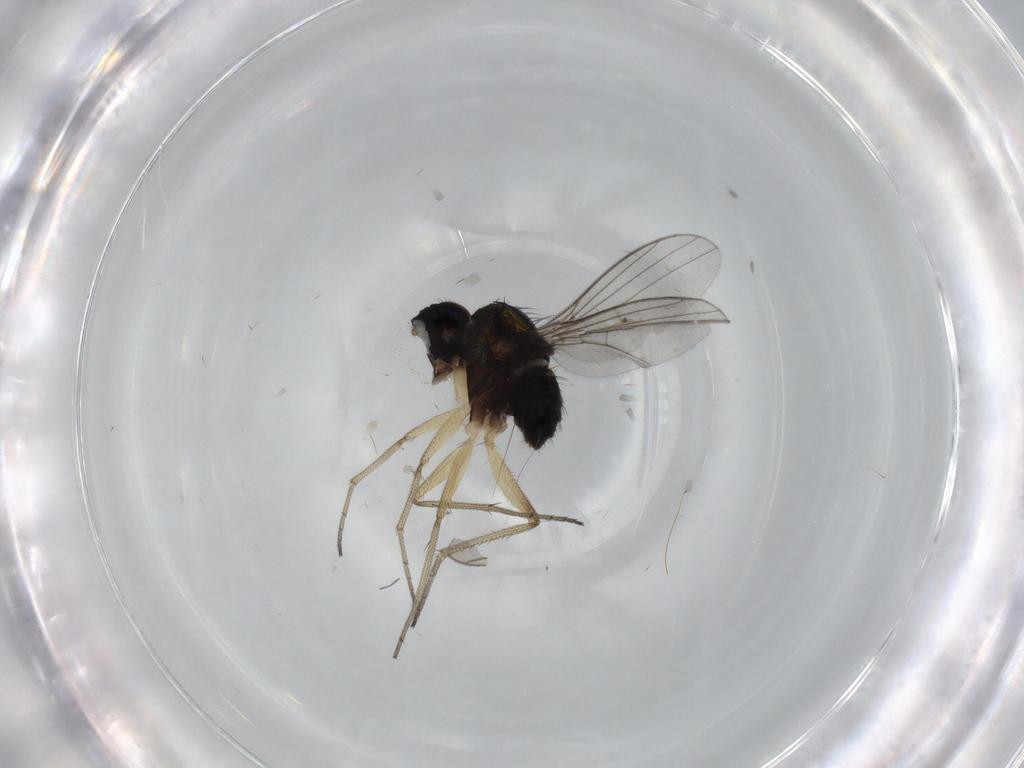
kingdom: Animalia
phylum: Arthropoda
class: Insecta
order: Diptera
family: Dolichopodidae
